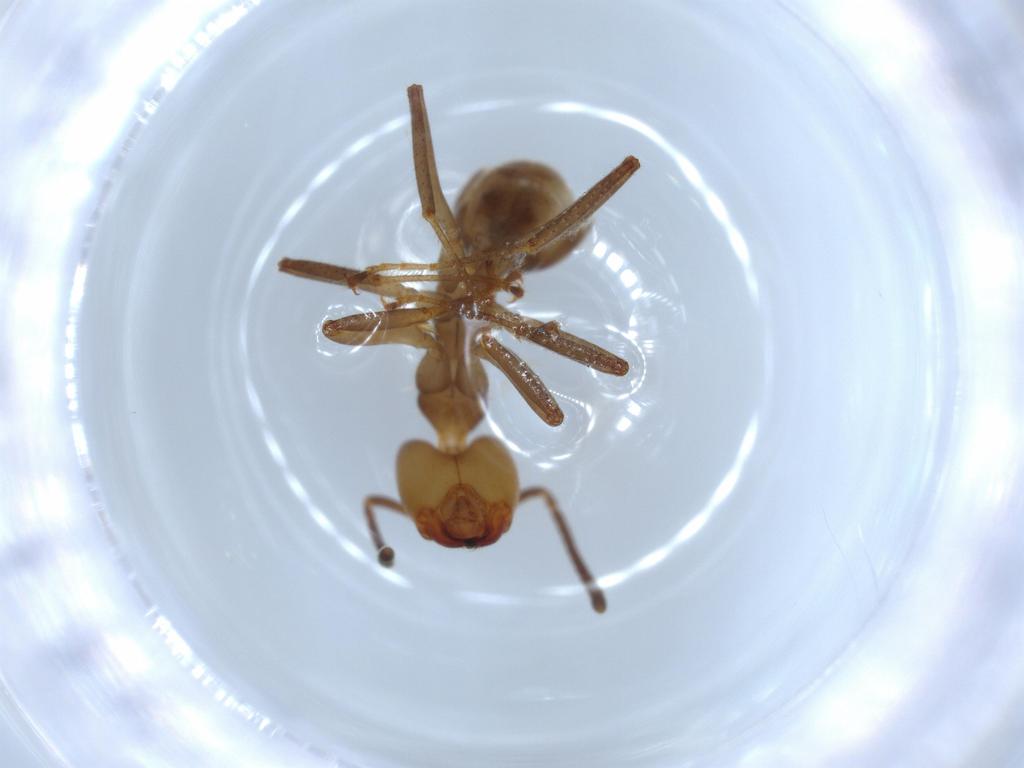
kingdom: Animalia
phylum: Arthropoda
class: Insecta
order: Hymenoptera
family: Formicidae
